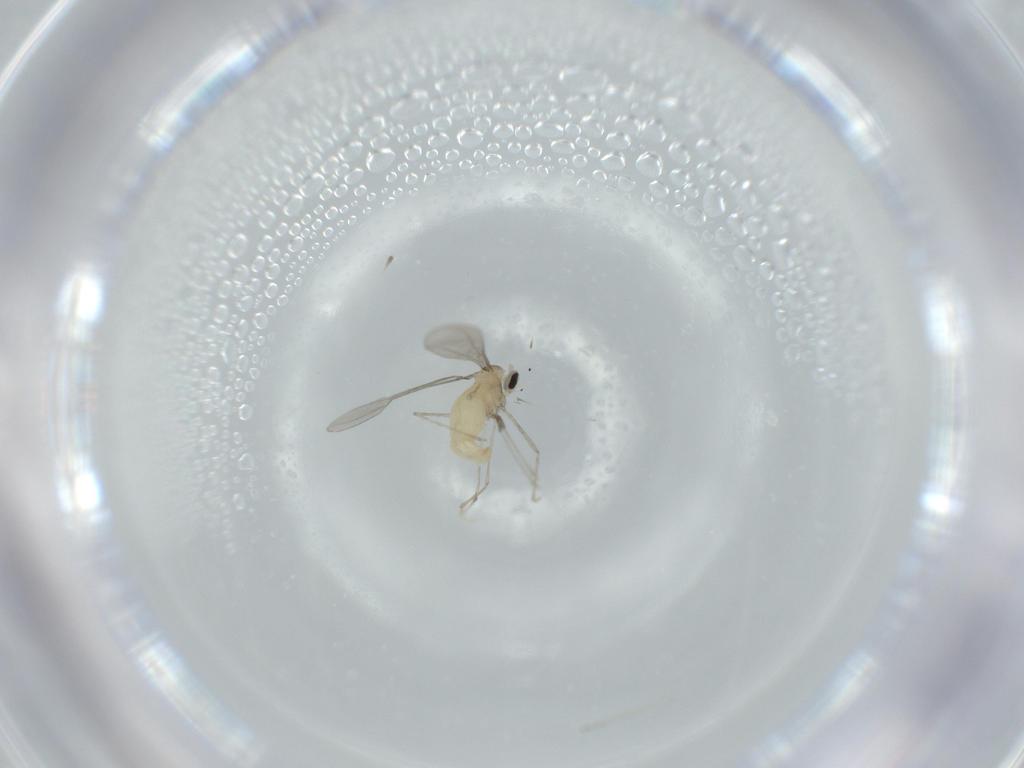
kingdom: Animalia
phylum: Arthropoda
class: Insecta
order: Diptera
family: Cecidomyiidae
